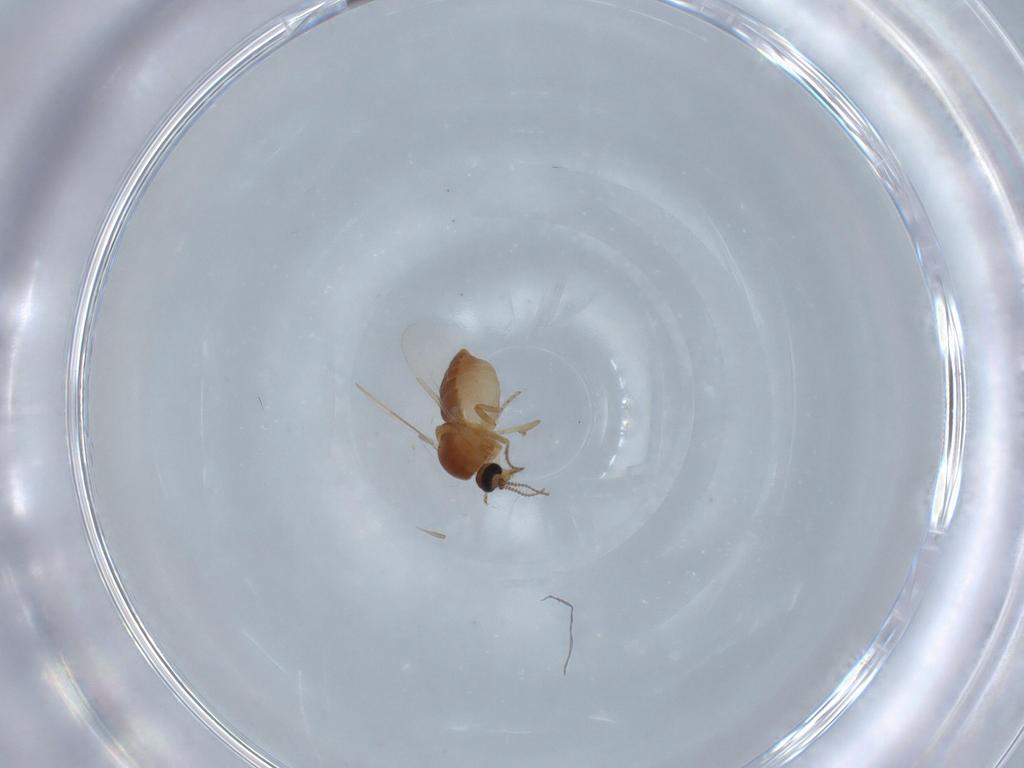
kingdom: Animalia
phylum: Arthropoda
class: Insecta
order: Diptera
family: Ceratopogonidae
